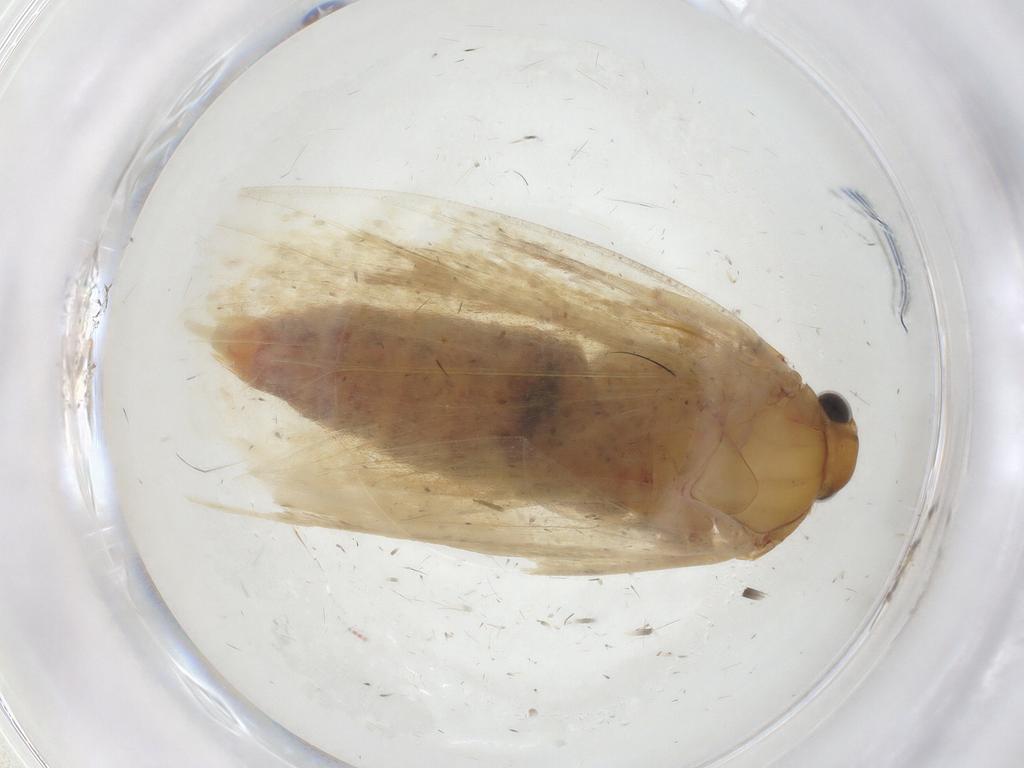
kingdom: Animalia
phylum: Arthropoda
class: Insecta
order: Lepidoptera
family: Oecophoridae
